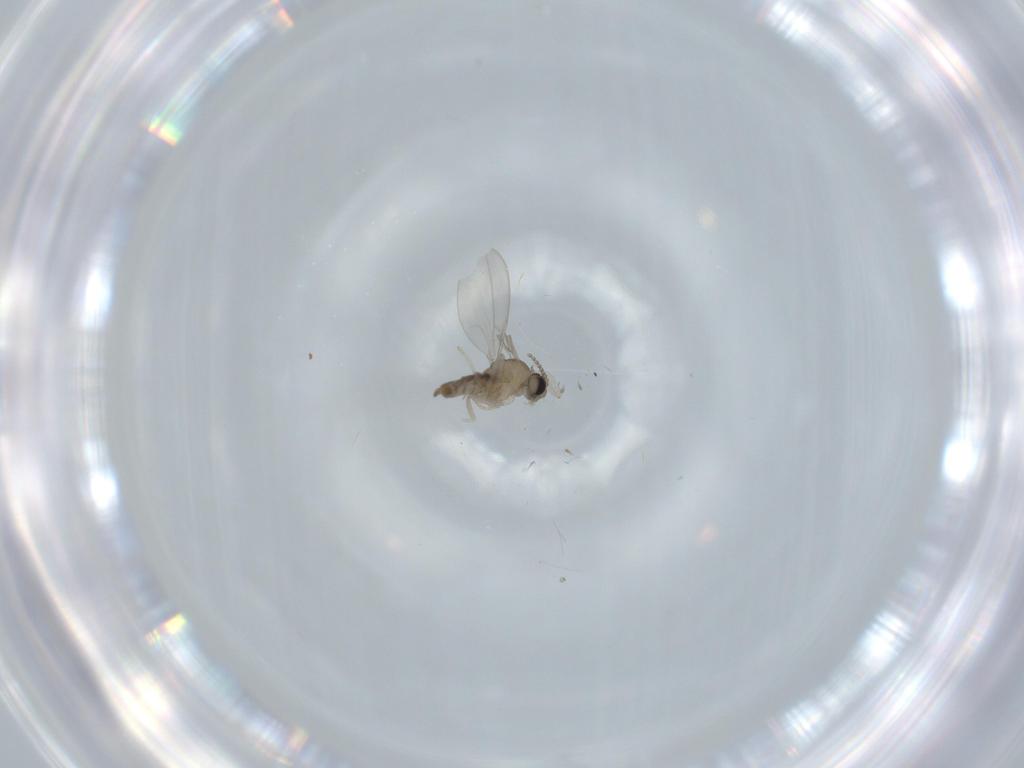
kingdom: Animalia
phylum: Arthropoda
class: Insecta
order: Diptera
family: Cecidomyiidae
